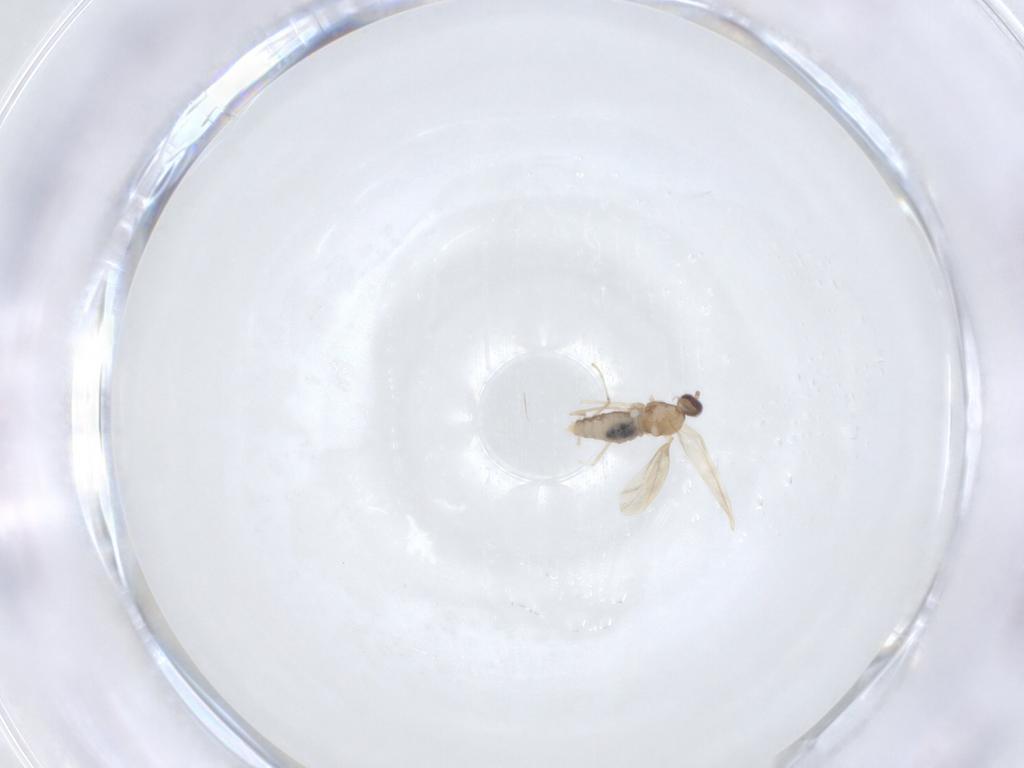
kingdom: Animalia
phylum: Arthropoda
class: Insecta
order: Diptera
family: Cecidomyiidae
